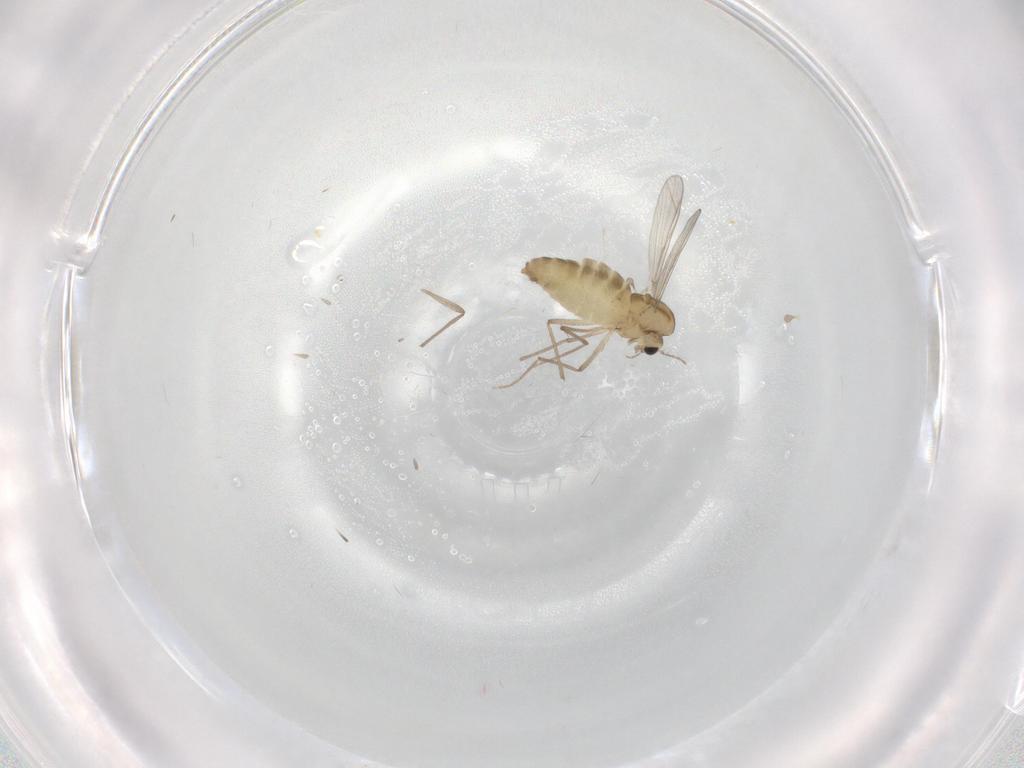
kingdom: Animalia
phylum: Arthropoda
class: Insecta
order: Diptera
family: Chironomidae
